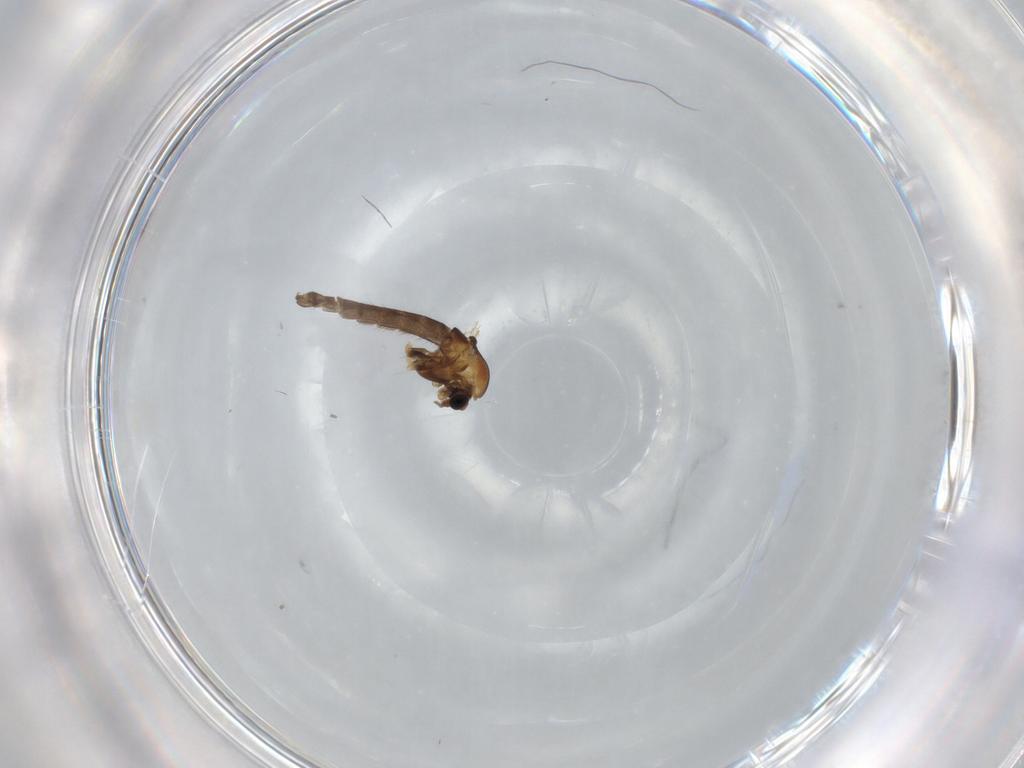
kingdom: Animalia
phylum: Arthropoda
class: Insecta
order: Diptera
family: Chironomidae
